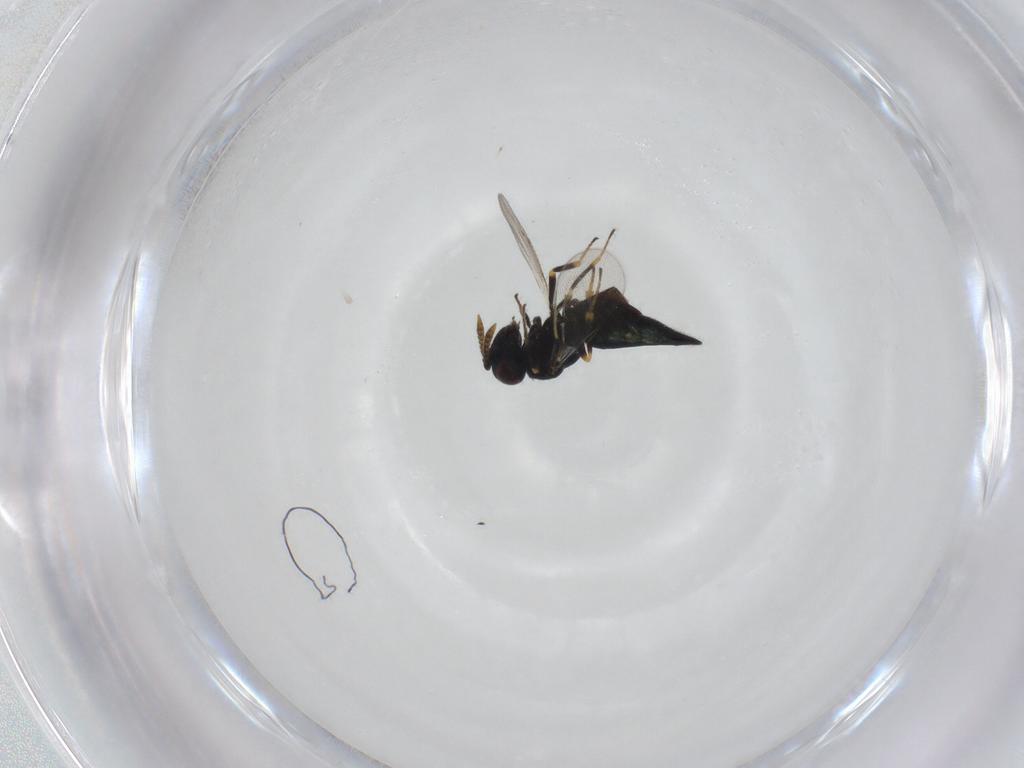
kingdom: Animalia
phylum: Arthropoda
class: Insecta
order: Hymenoptera
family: Pteromalidae
